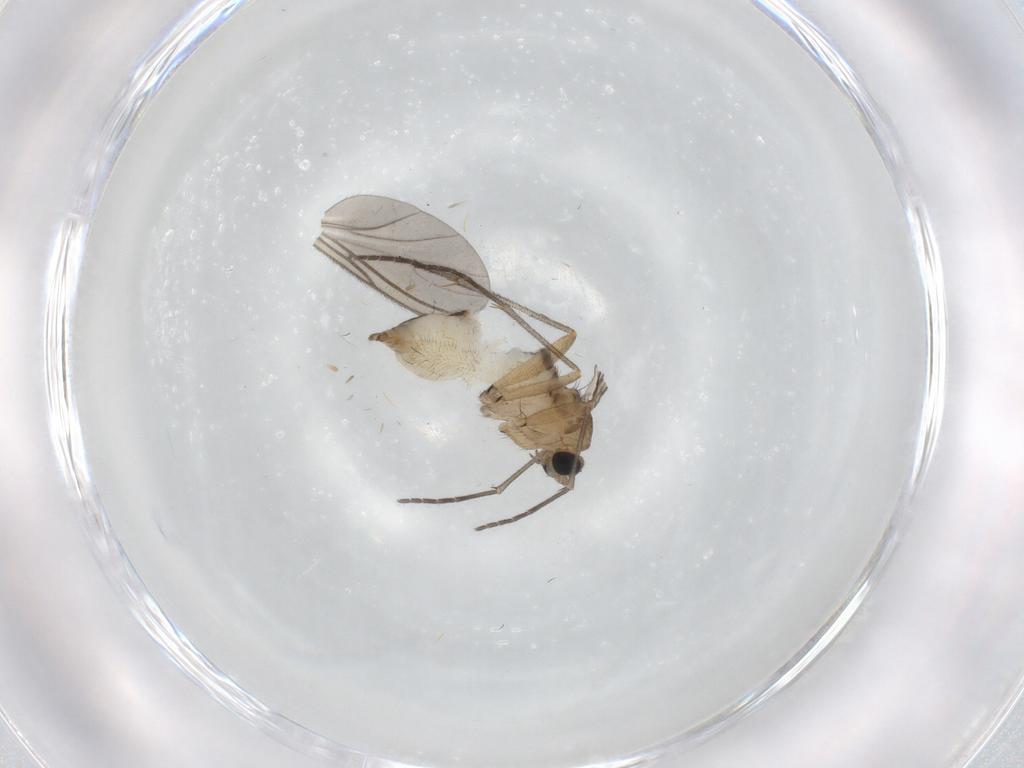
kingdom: Animalia
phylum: Arthropoda
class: Insecta
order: Diptera
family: Sciaridae
